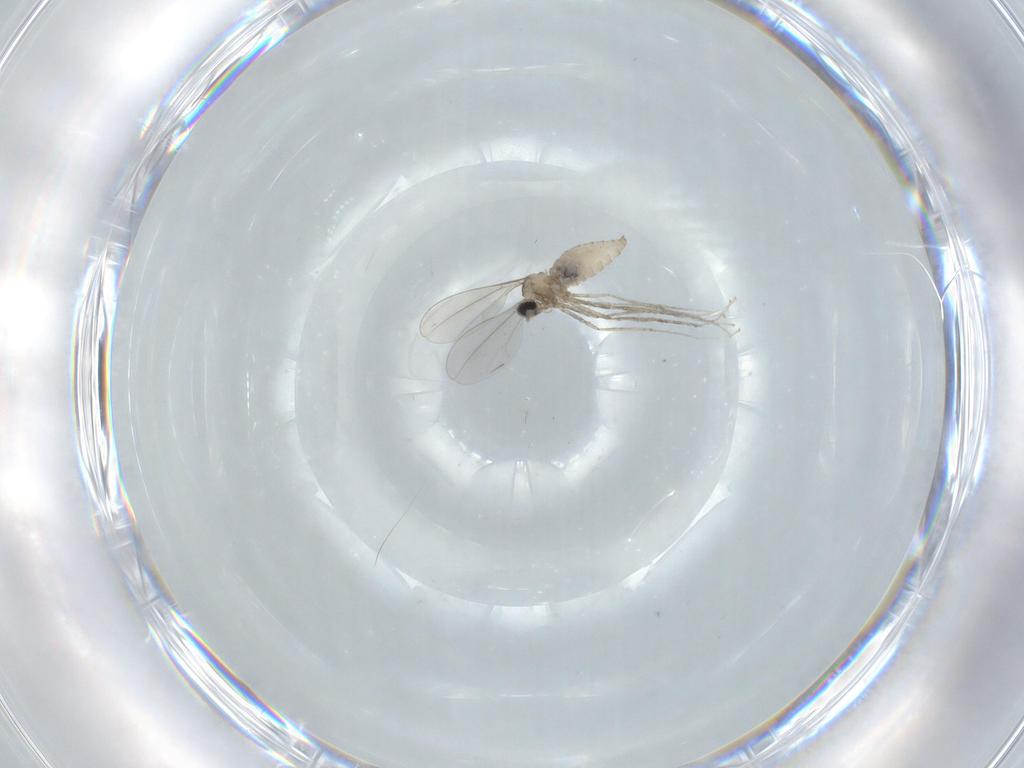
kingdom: Animalia
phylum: Arthropoda
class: Insecta
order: Diptera
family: Cecidomyiidae
